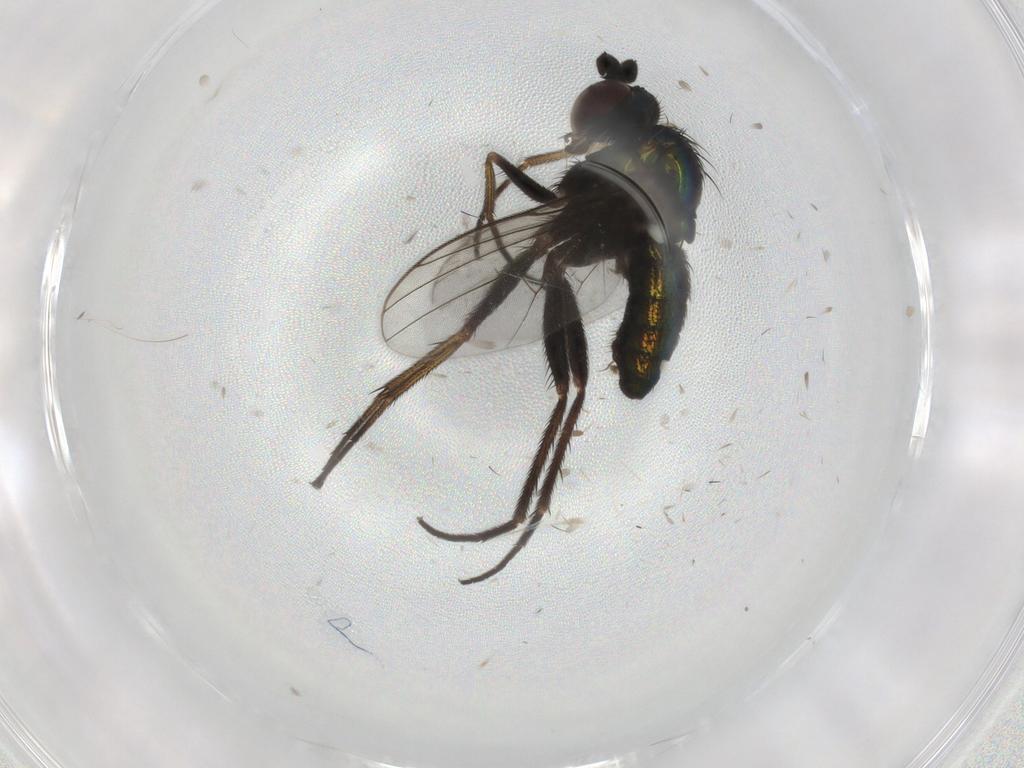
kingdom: Animalia
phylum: Arthropoda
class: Insecta
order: Diptera
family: Dolichopodidae
